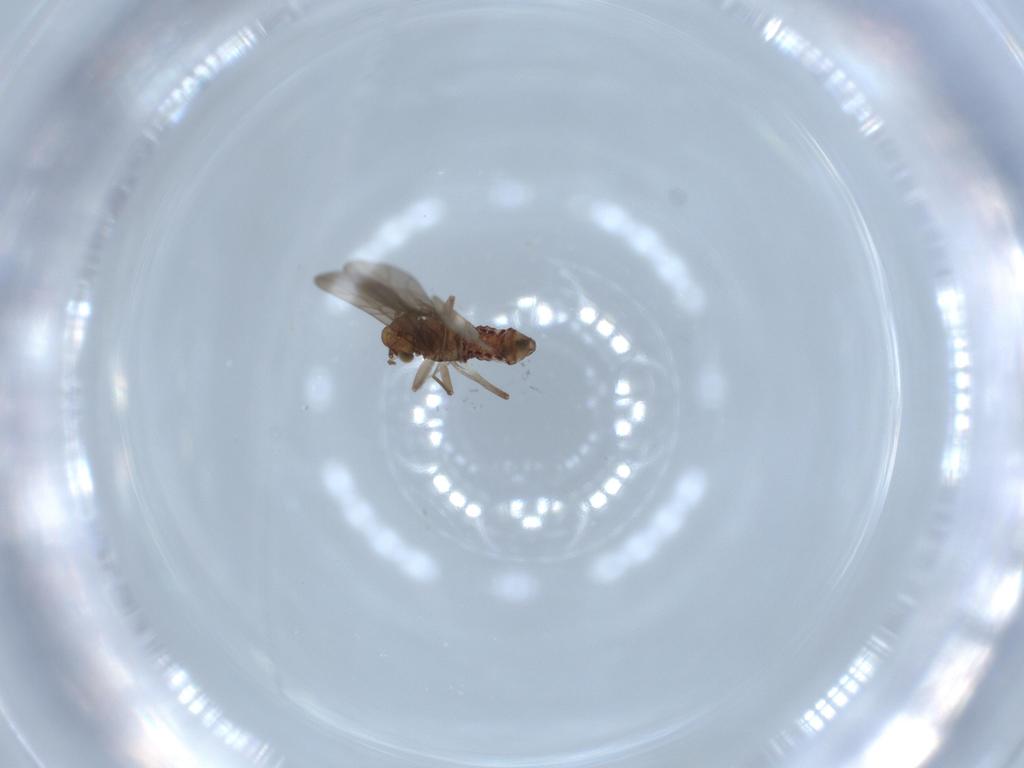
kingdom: Animalia
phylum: Arthropoda
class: Insecta
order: Psocodea
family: Lepidopsocidae
